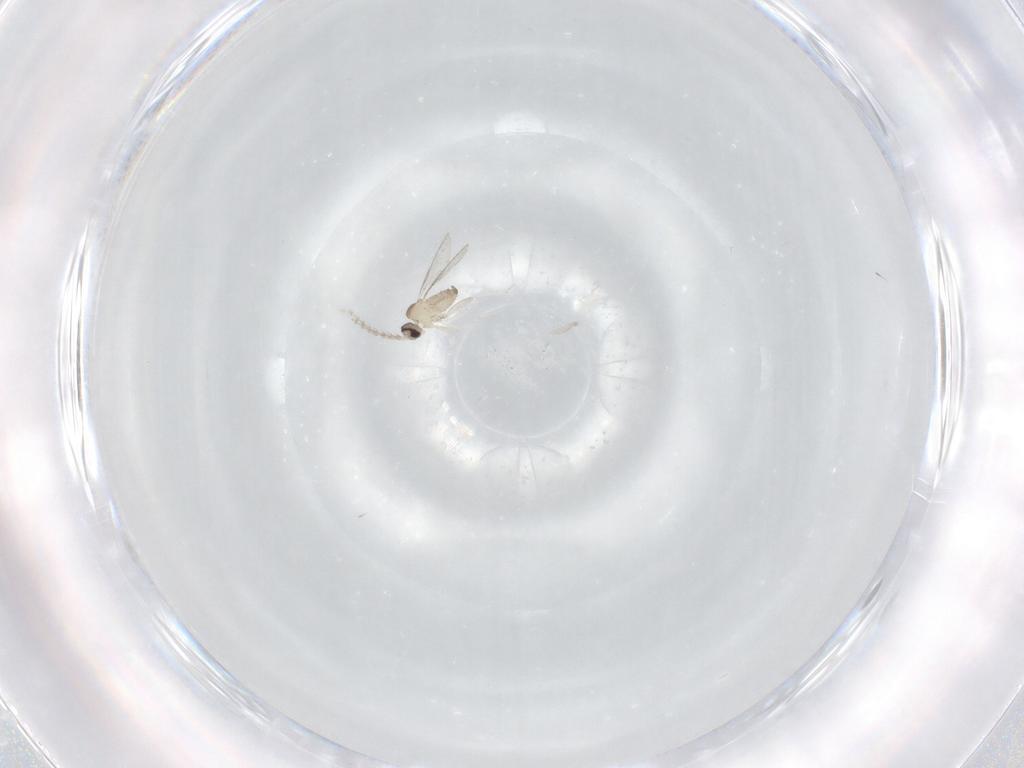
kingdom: Animalia
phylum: Arthropoda
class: Insecta
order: Diptera
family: Cecidomyiidae
